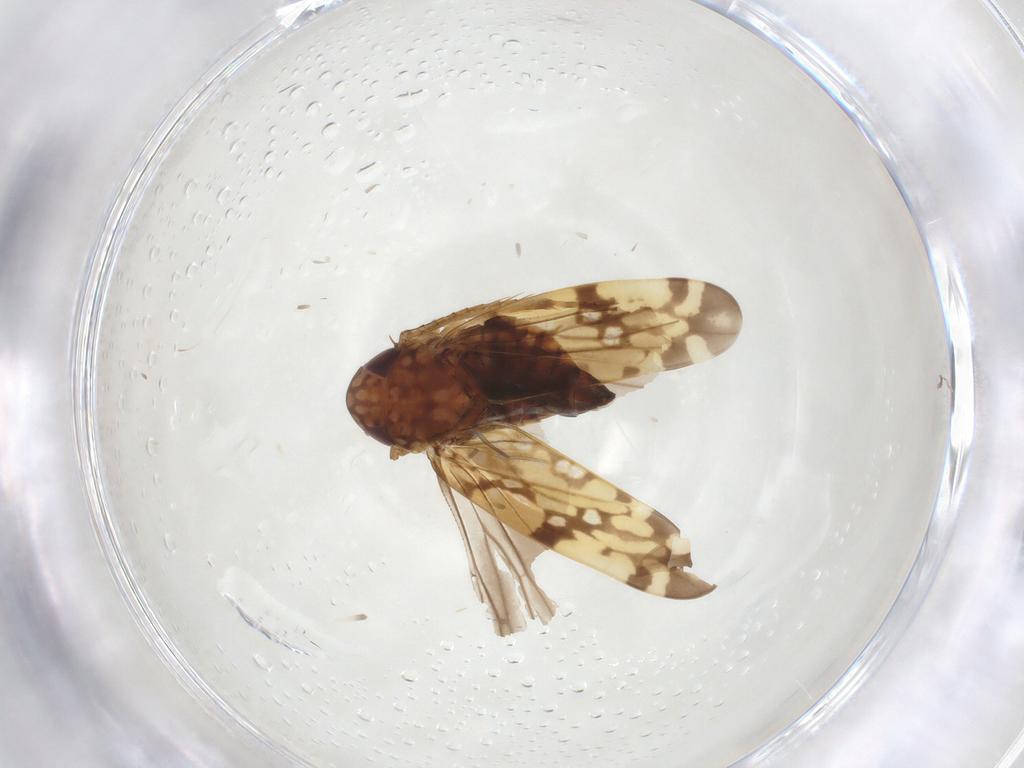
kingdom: Animalia
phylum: Arthropoda
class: Insecta
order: Hemiptera
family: Cicadellidae
